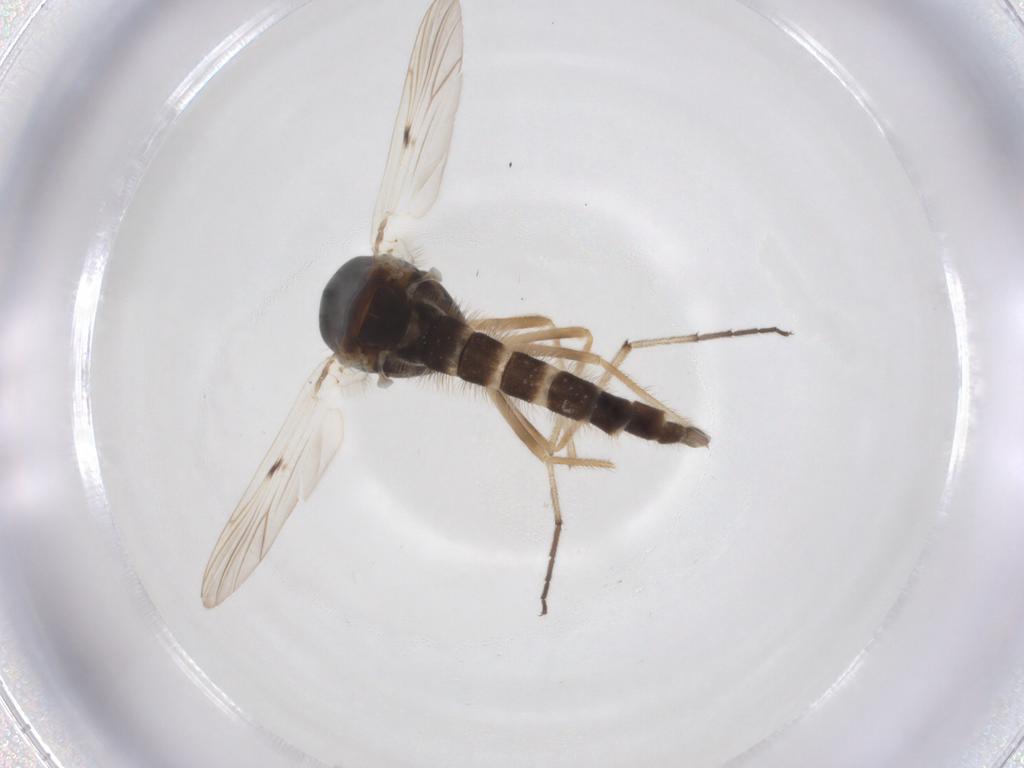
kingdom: Animalia
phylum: Arthropoda
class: Insecta
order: Diptera
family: Chironomidae
